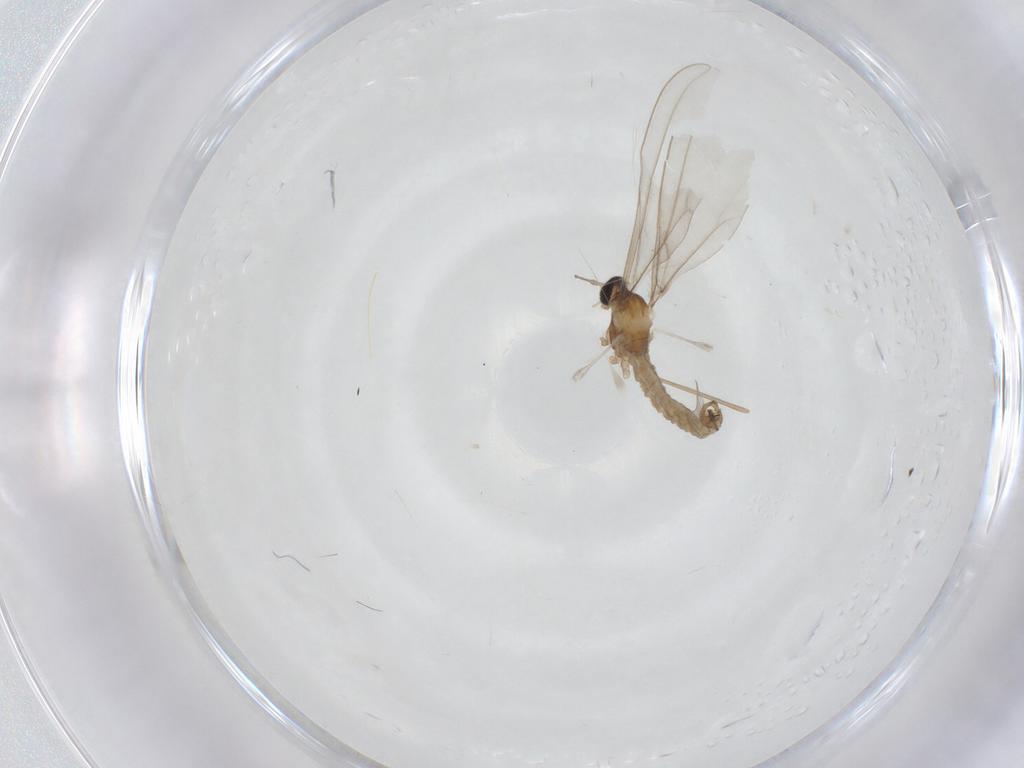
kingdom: Animalia
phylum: Arthropoda
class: Insecta
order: Diptera
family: Cecidomyiidae
